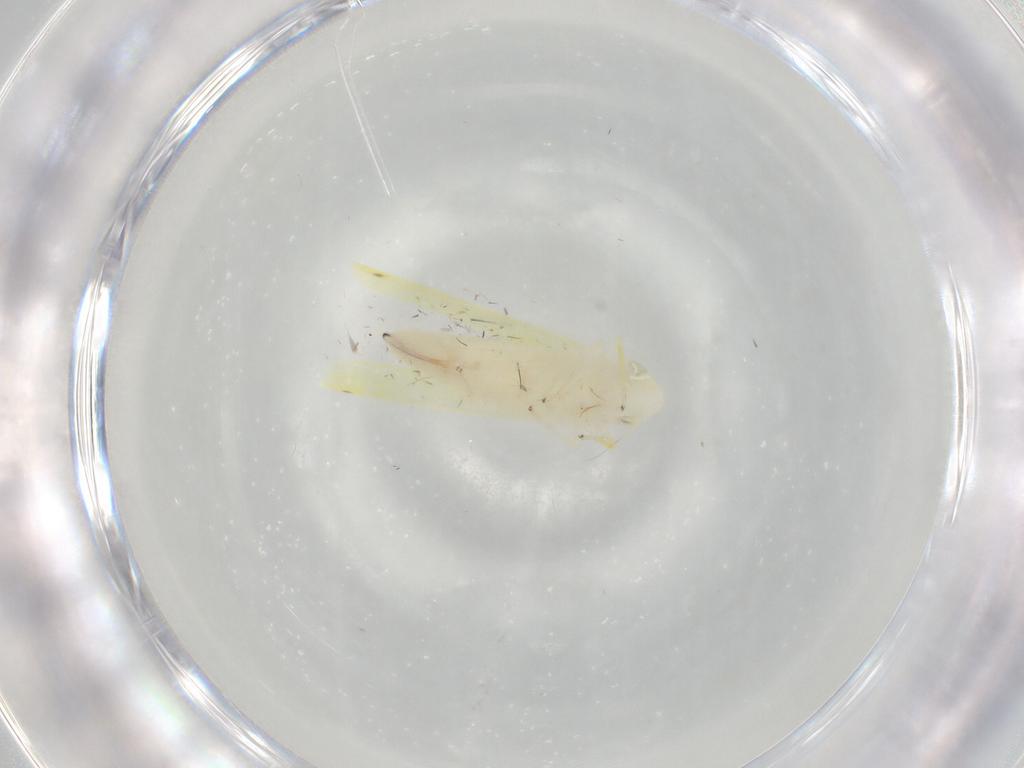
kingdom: Animalia
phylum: Arthropoda
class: Insecta
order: Hemiptera
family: Cicadellidae
